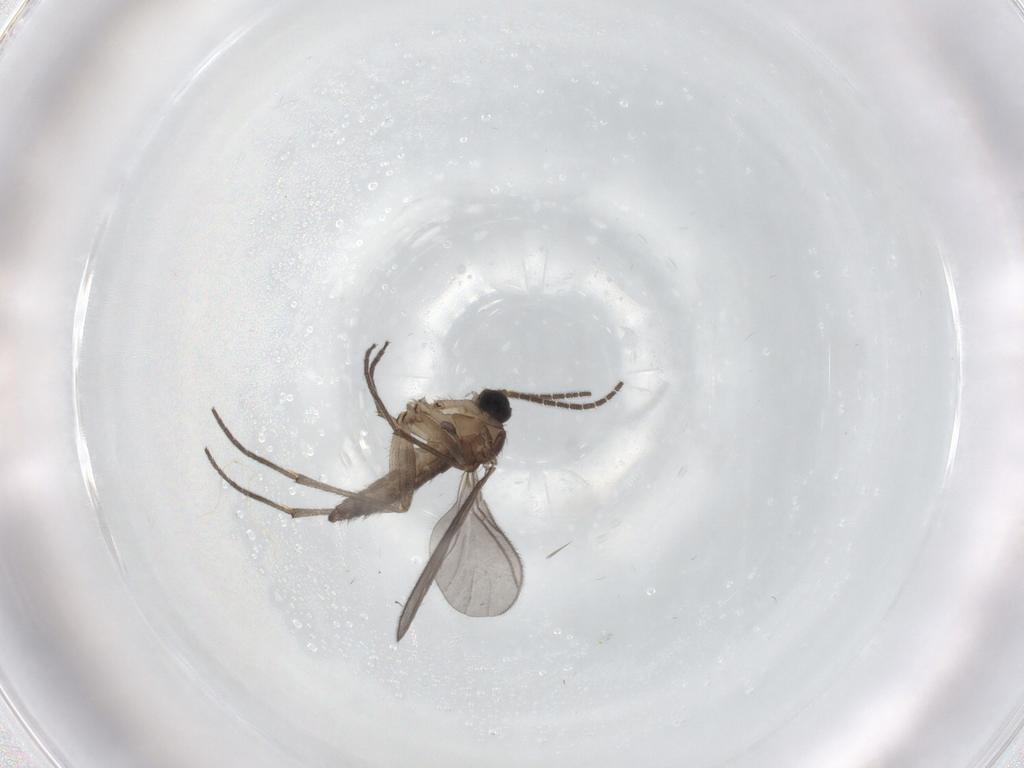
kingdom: Animalia
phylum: Arthropoda
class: Insecta
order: Diptera
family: Sciaridae
